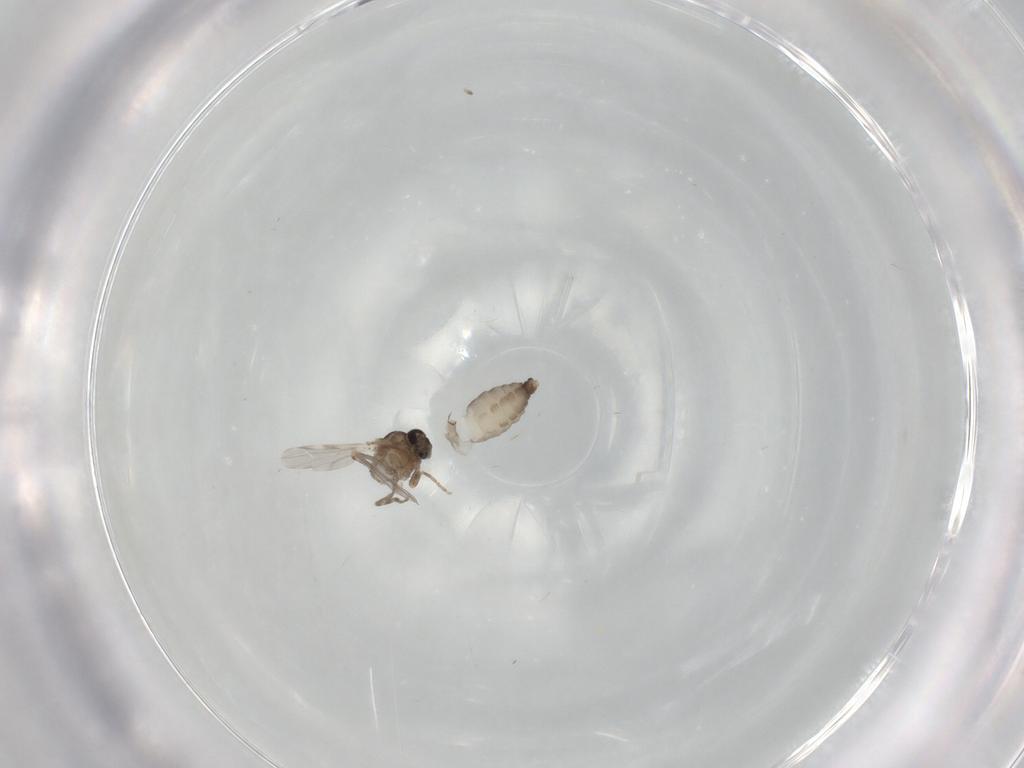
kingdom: Animalia
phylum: Arthropoda
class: Insecta
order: Diptera
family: Ceratopogonidae
